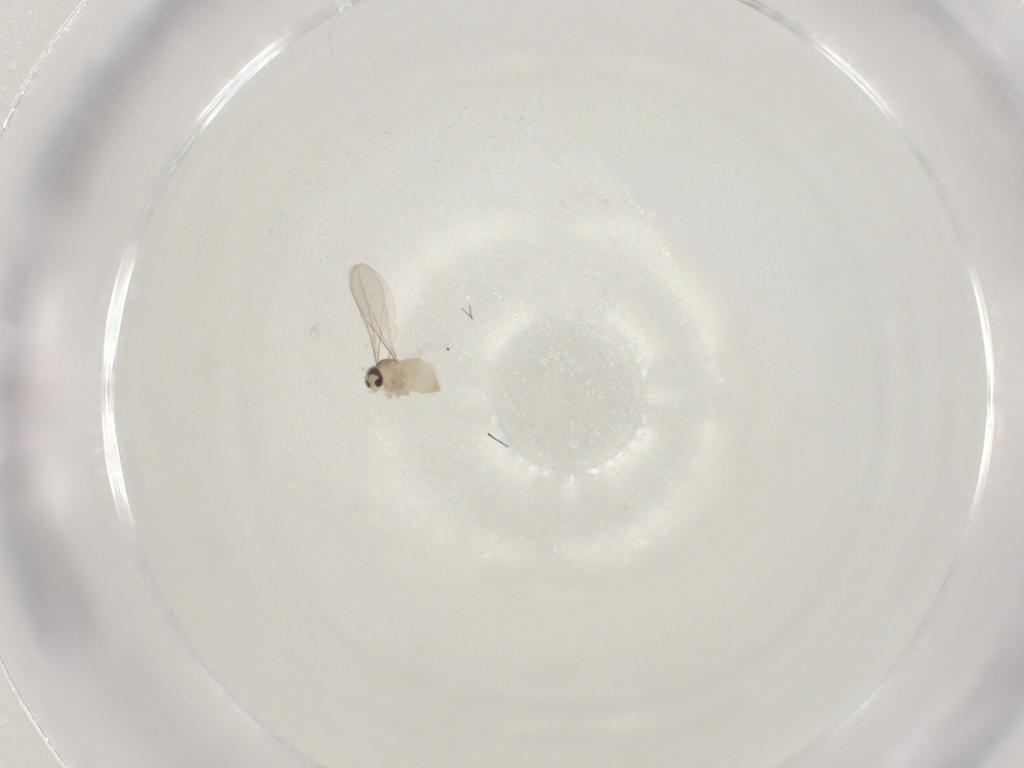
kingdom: Animalia
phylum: Arthropoda
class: Insecta
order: Diptera
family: Cecidomyiidae
